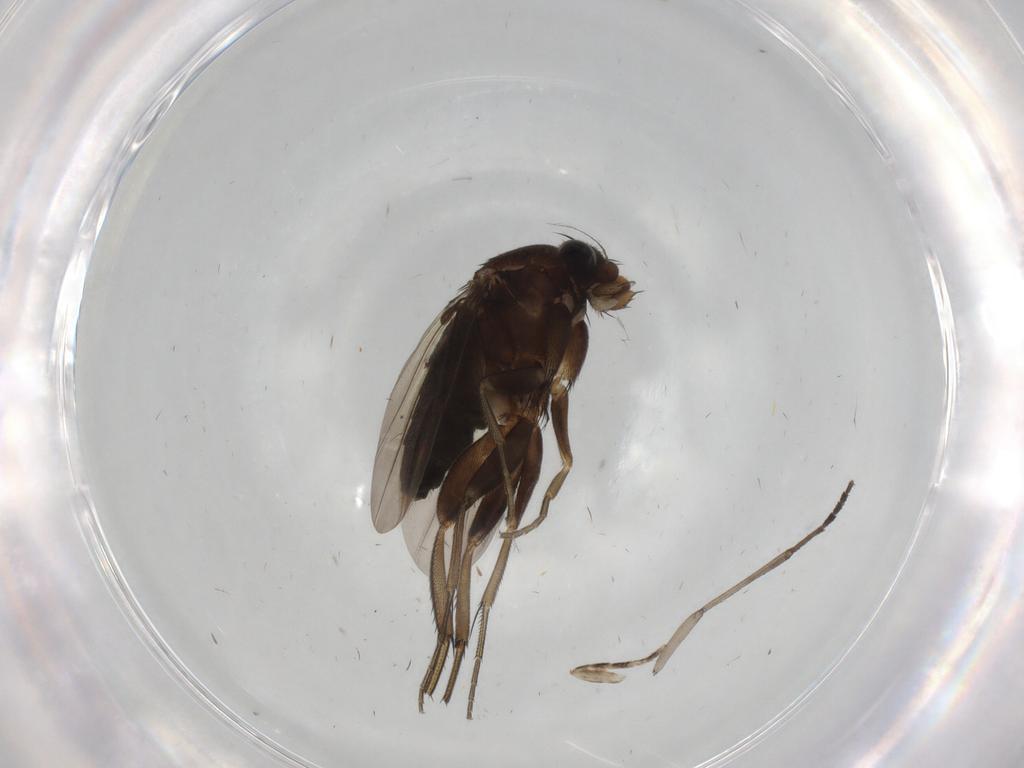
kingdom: Animalia
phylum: Arthropoda
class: Insecta
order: Diptera
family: Phoridae
